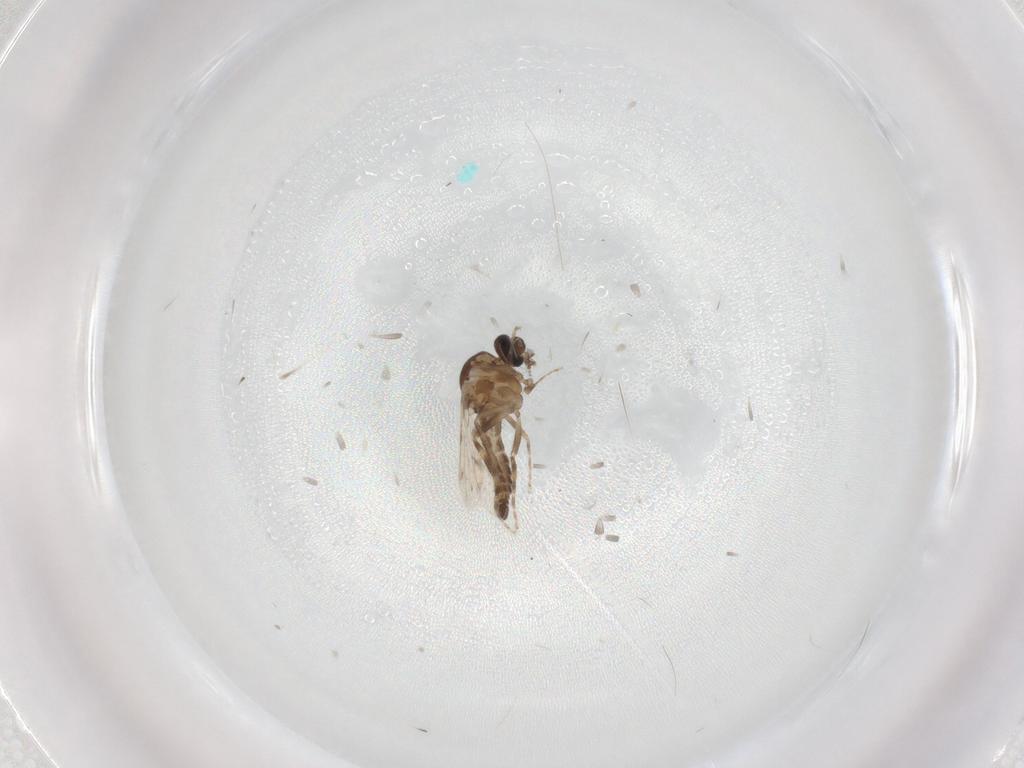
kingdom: Animalia
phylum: Arthropoda
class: Insecta
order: Diptera
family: Ceratopogonidae
